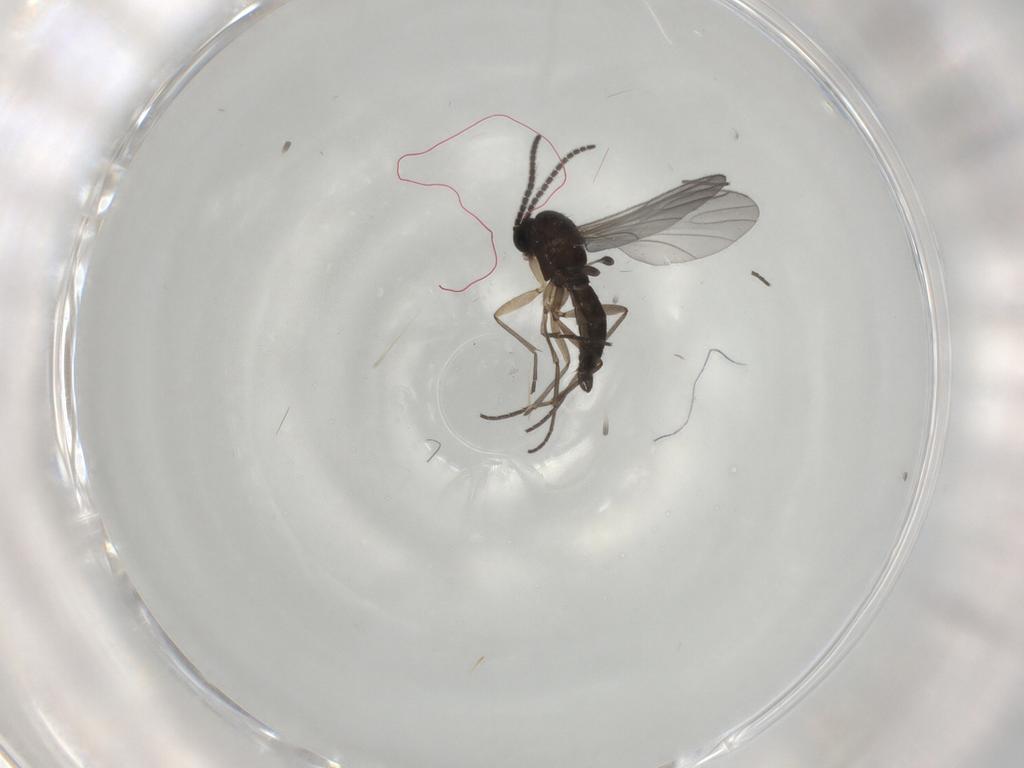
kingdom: Animalia
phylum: Arthropoda
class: Insecta
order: Diptera
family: Sciaridae
